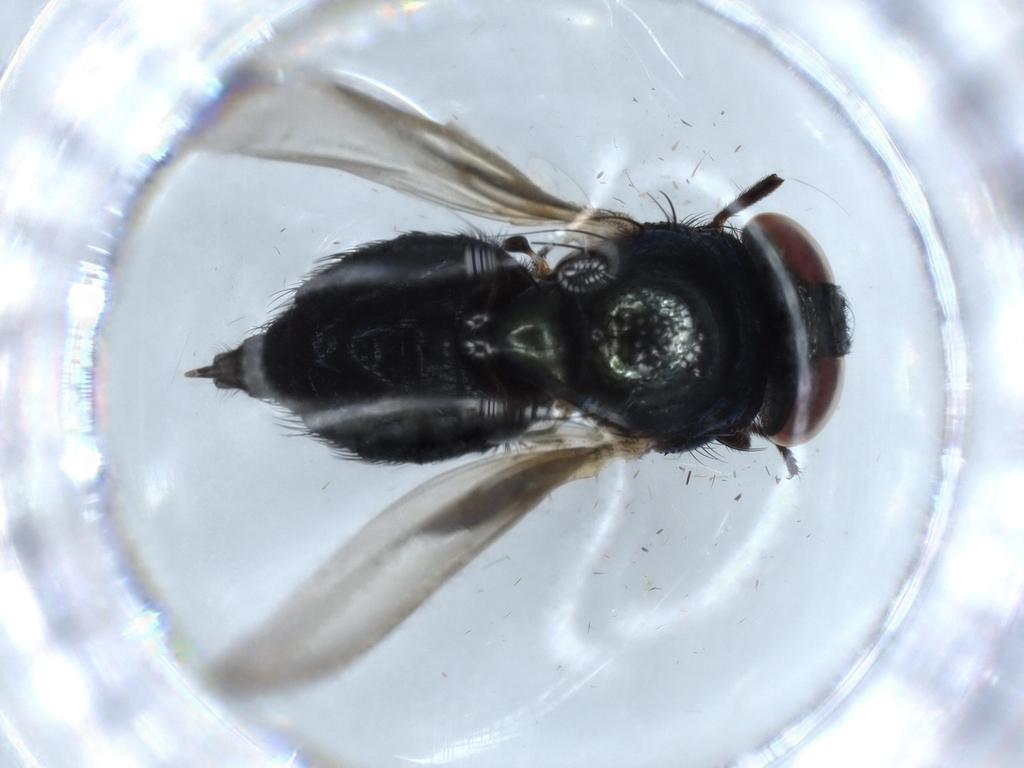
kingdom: Animalia
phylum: Arthropoda
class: Insecta
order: Diptera
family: Lonchaeidae
